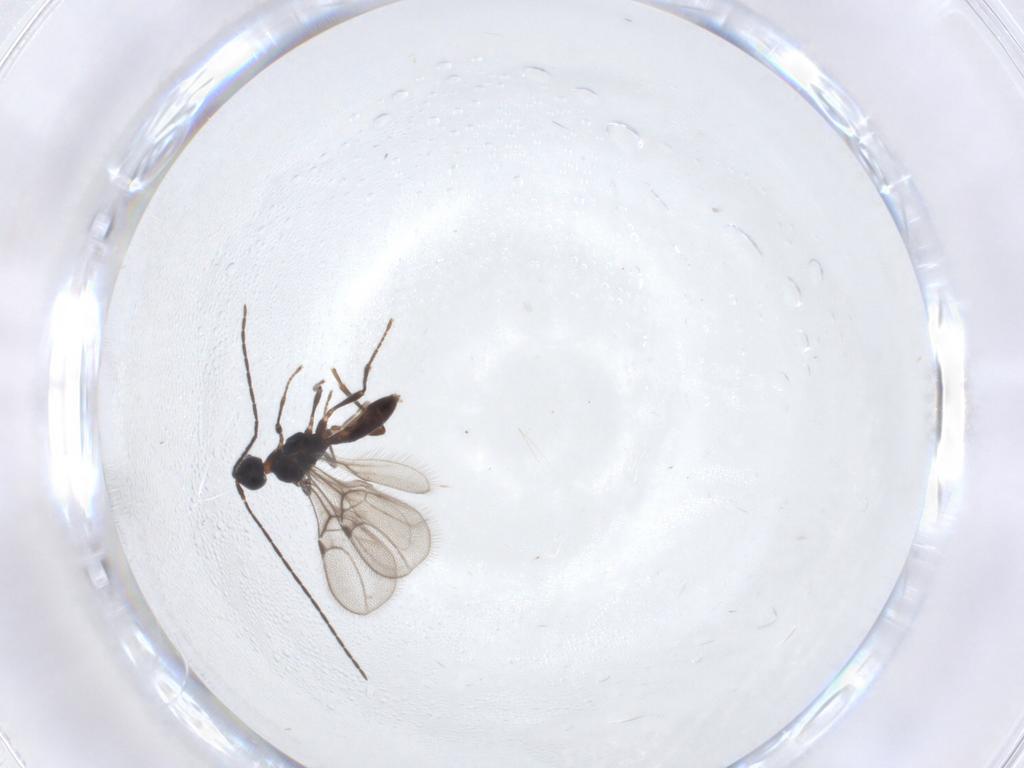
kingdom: Animalia
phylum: Arthropoda
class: Insecta
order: Hymenoptera
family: Braconidae
